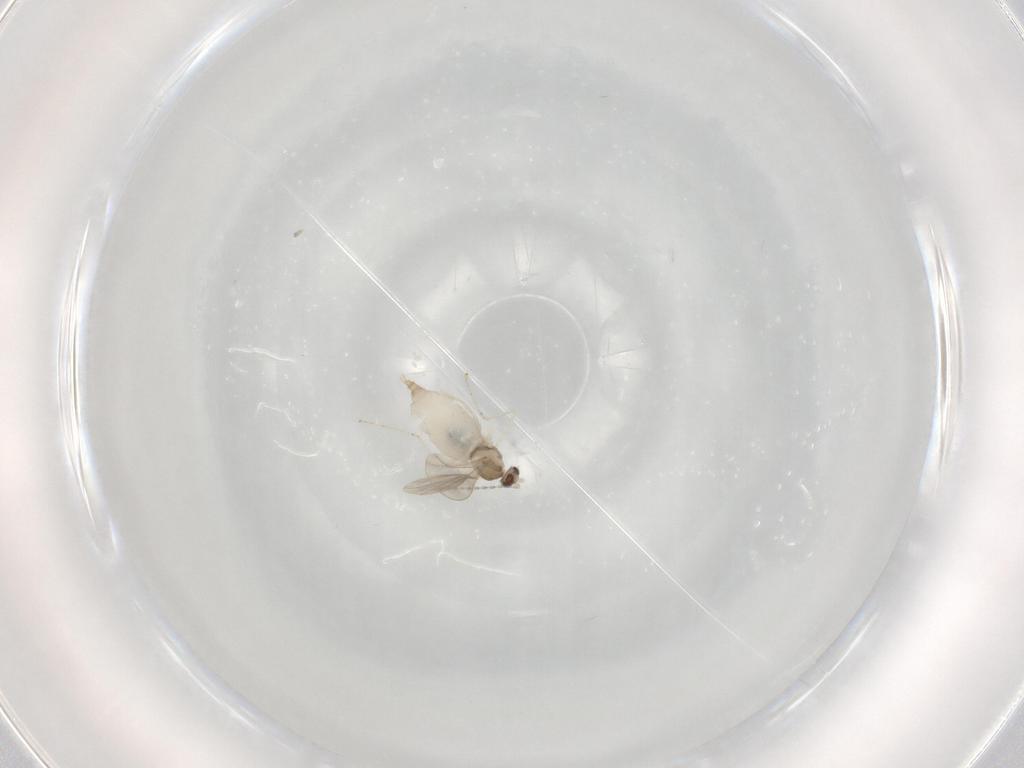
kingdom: Animalia
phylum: Arthropoda
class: Insecta
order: Diptera
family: Cecidomyiidae
